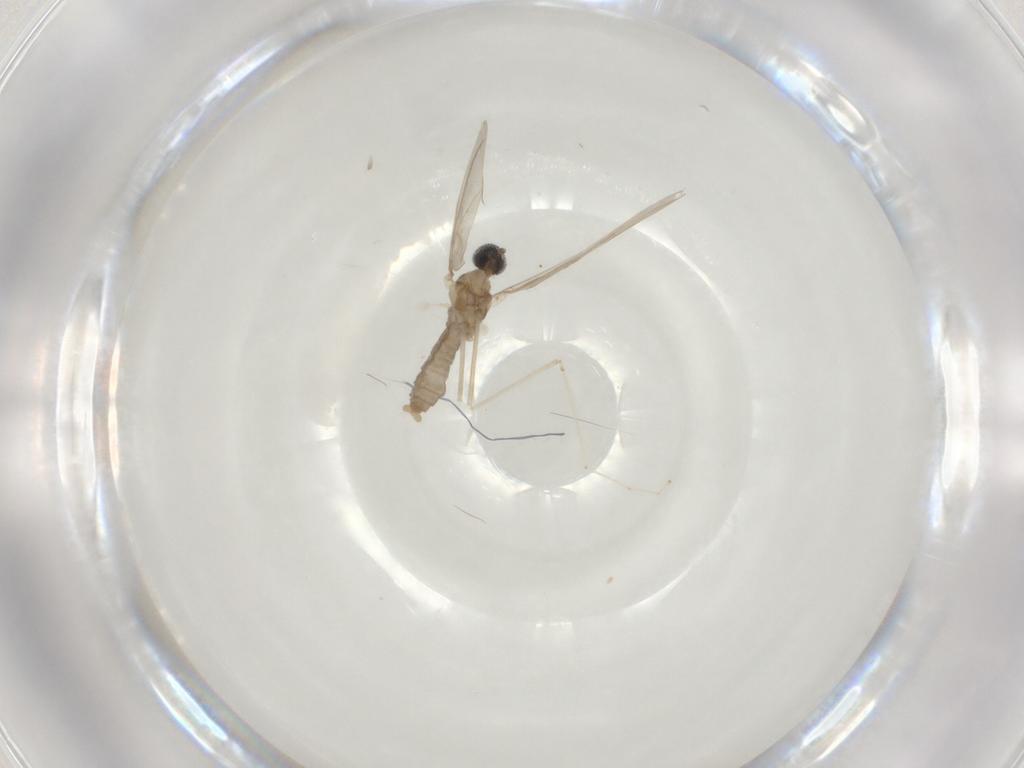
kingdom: Animalia
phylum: Arthropoda
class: Insecta
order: Diptera
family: Cecidomyiidae
